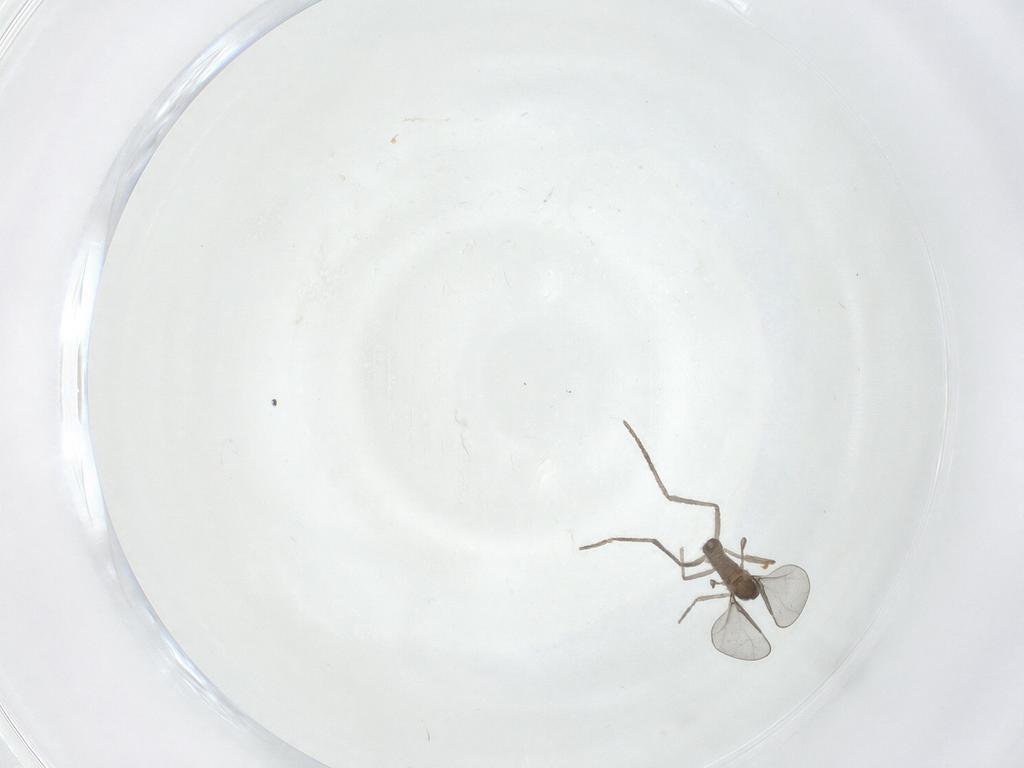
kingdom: Animalia
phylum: Arthropoda
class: Insecta
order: Diptera
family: Cecidomyiidae
